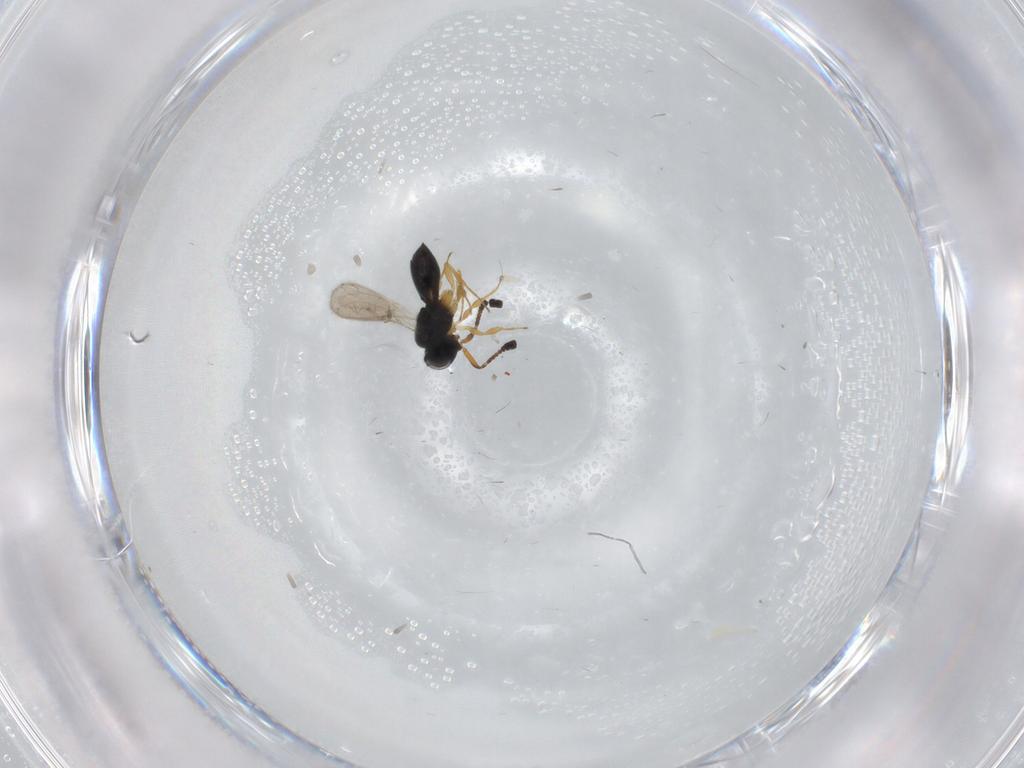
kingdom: Animalia
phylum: Arthropoda
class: Insecta
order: Hymenoptera
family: Scelionidae
